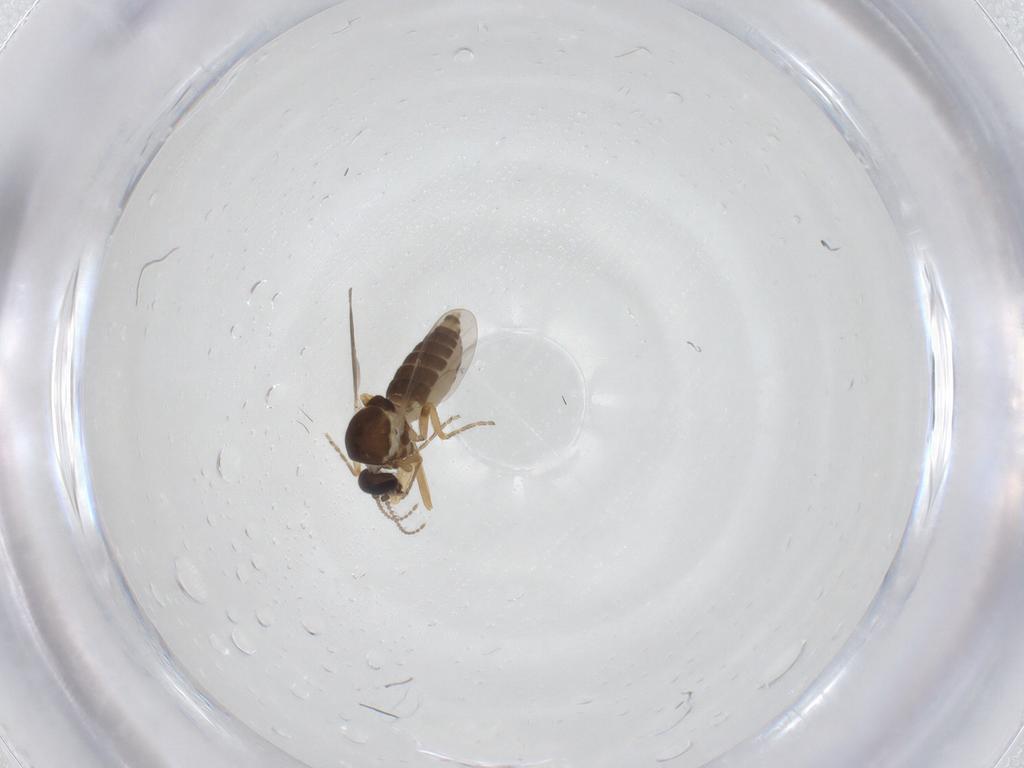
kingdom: Animalia
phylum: Arthropoda
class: Insecta
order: Diptera
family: Ceratopogonidae
